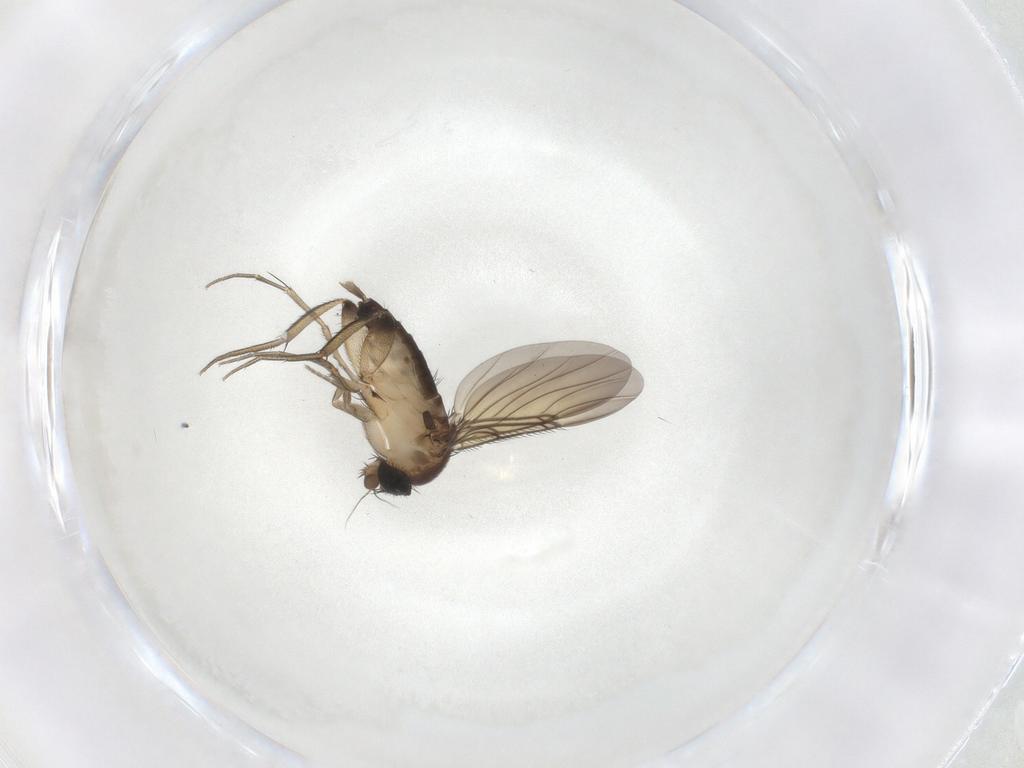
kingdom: Animalia
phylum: Arthropoda
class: Insecta
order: Diptera
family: Phoridae
